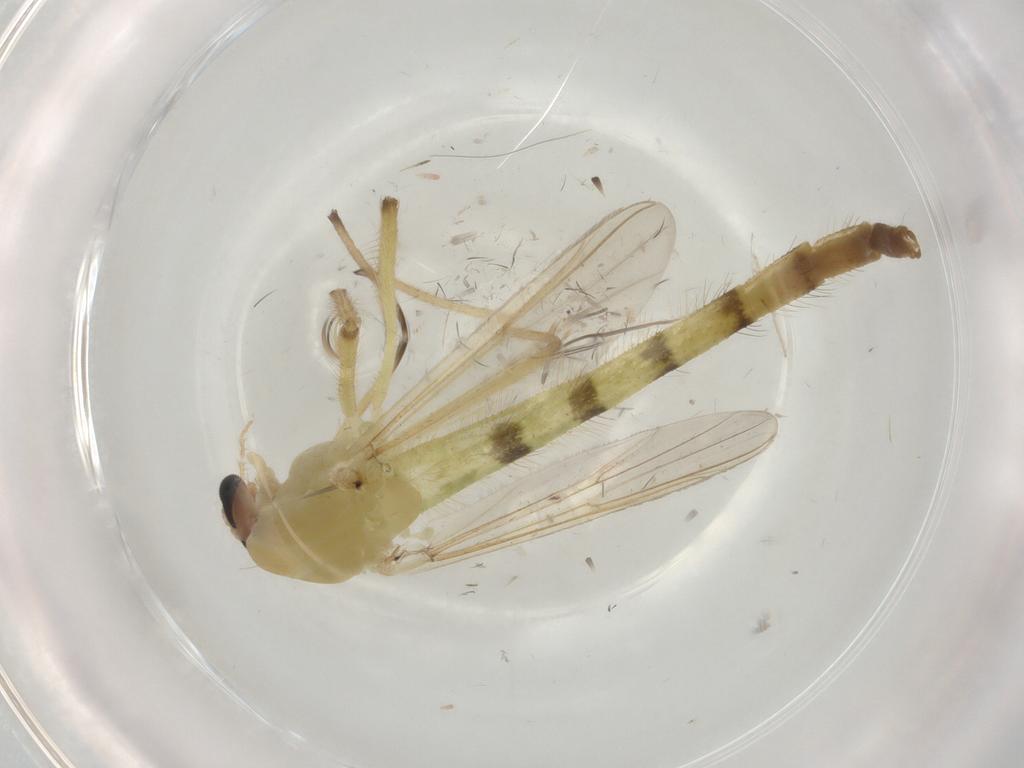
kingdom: Animalia
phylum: Arthropoda
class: Insecta
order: Diptera
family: Chironomidae
